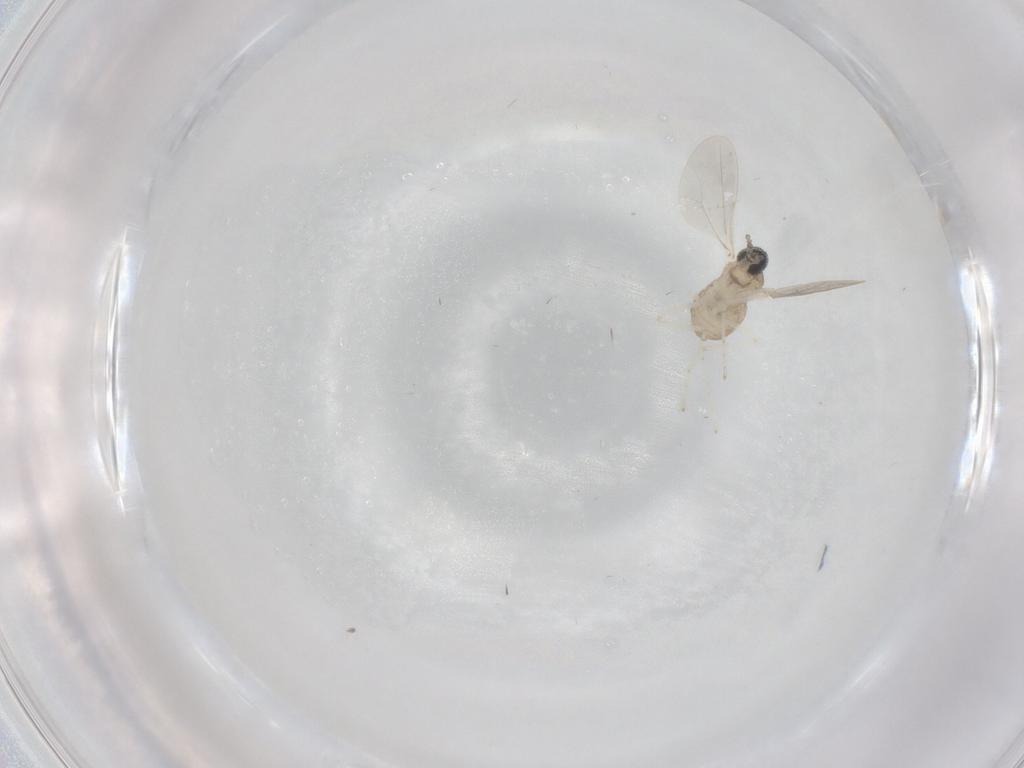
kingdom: Animalia
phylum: Arthropoda
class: Insecta
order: Diptera
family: Cecidomyiidae
